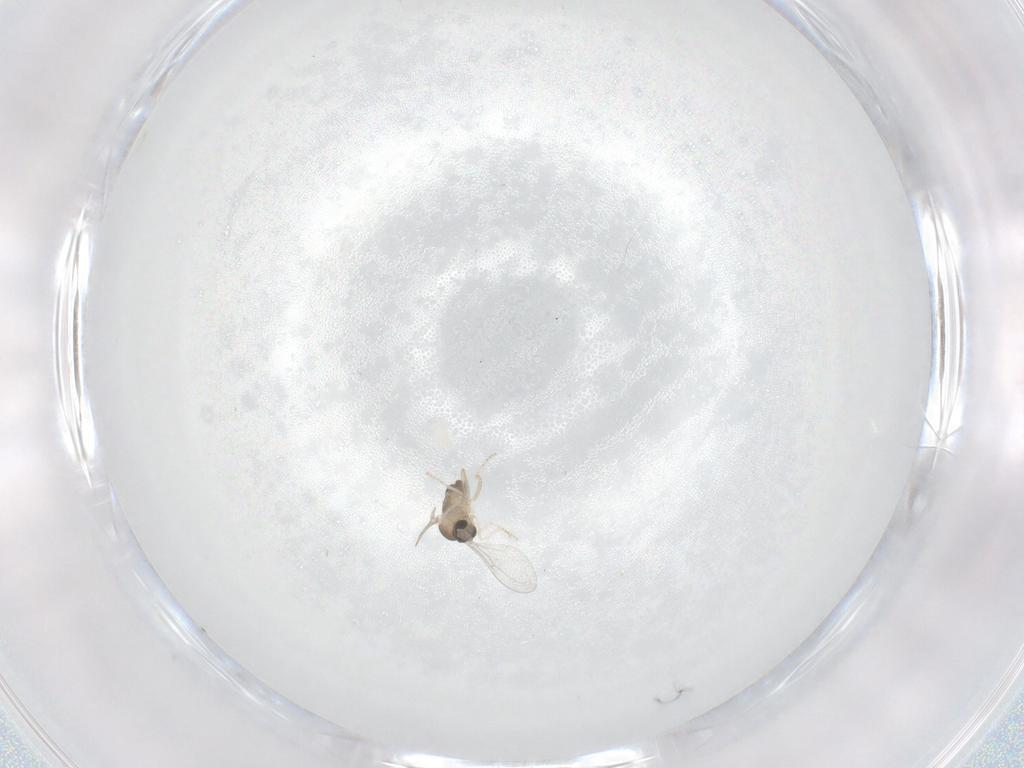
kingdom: Animalia
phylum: Arthropoda
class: Insecta
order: Diptera
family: Cecidomyiidae
